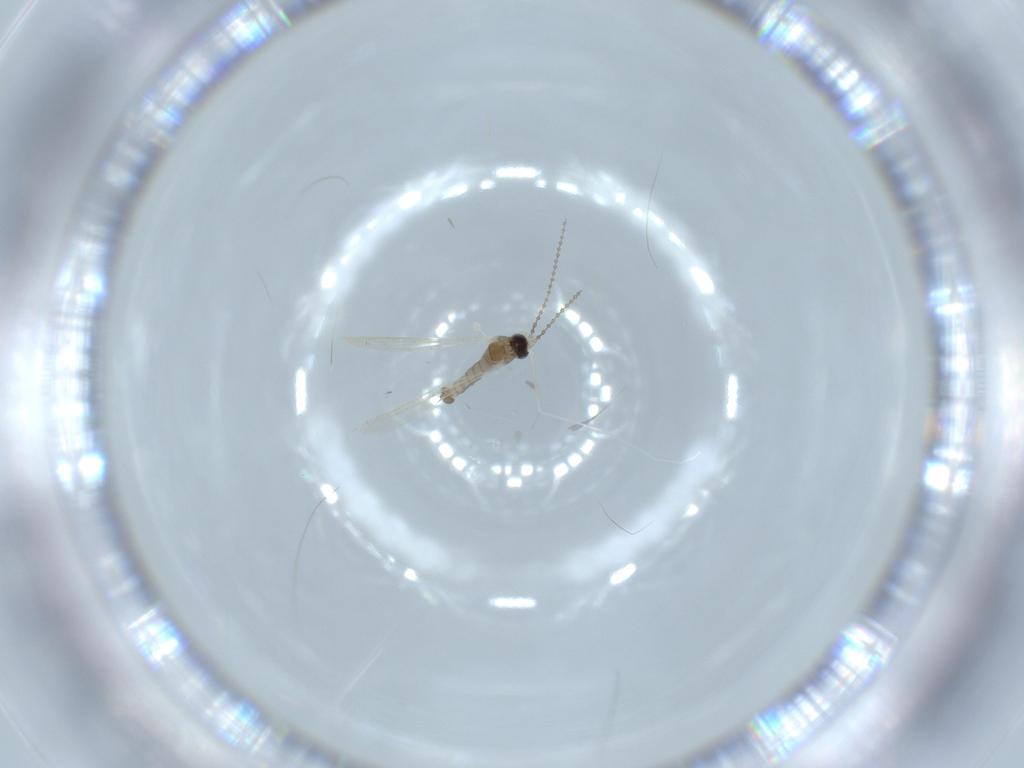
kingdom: Animalia
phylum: Arthropoda
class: Insecta
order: Diptera
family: Cecidomyiidae
